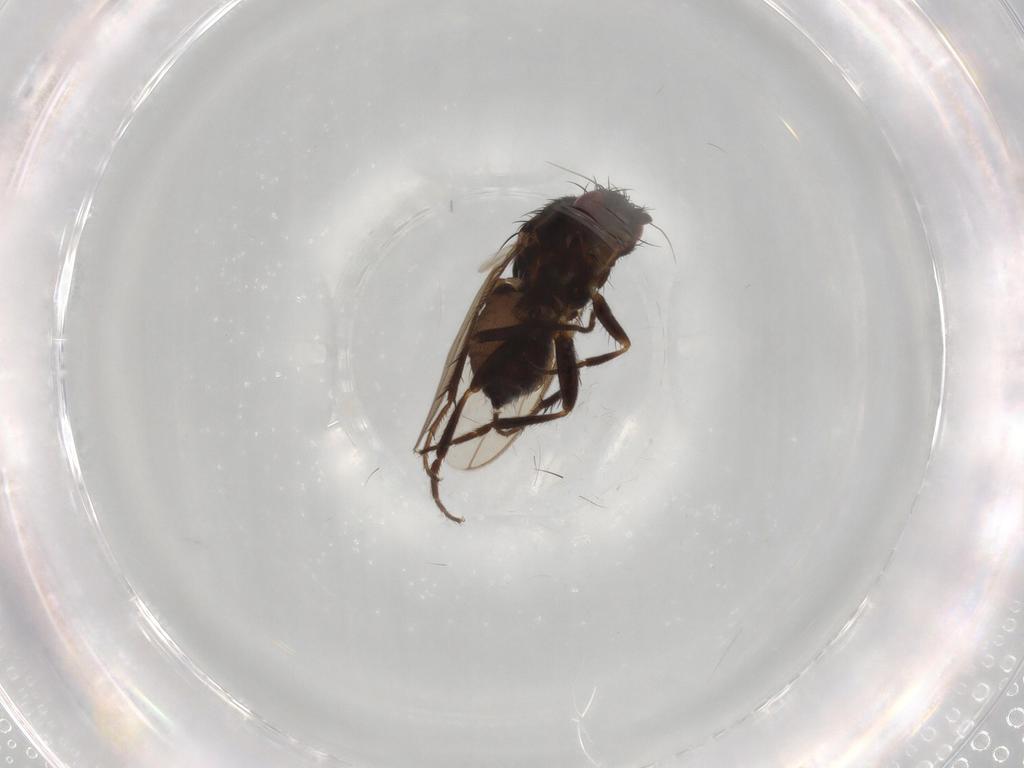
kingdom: Animalia
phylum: Arthropoda
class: Insecta
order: Diptera
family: Sphaeroceridae
